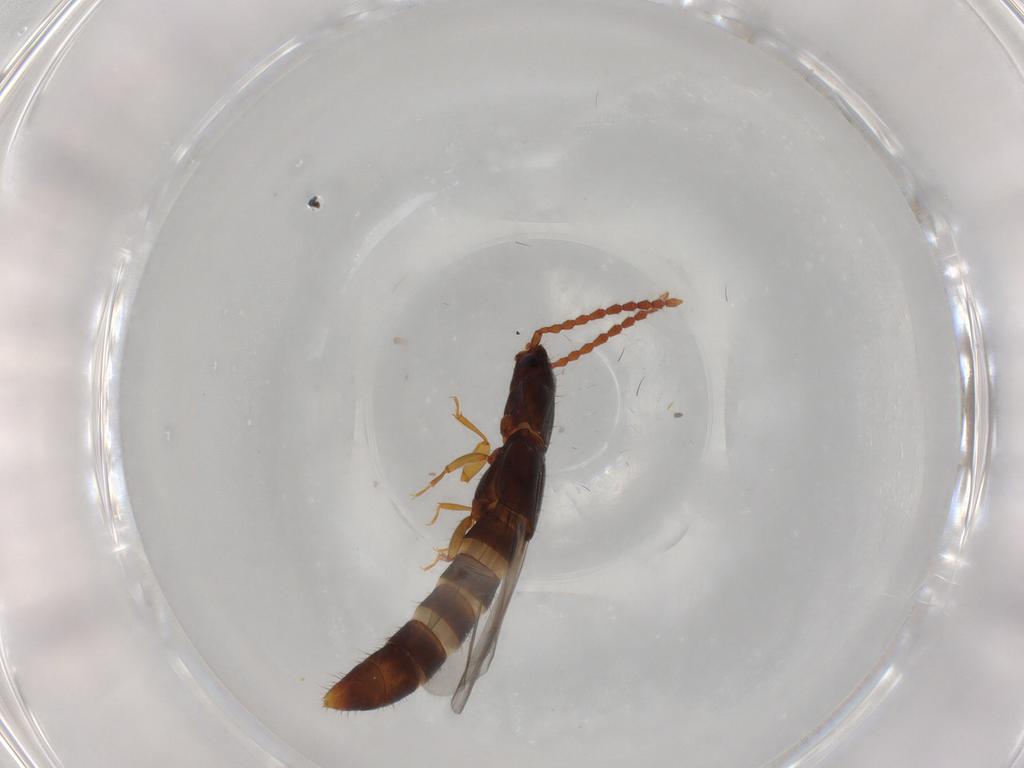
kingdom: Animalia
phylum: Arthropoda
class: Insecta
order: Coleoptera
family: Chrysomelidae
